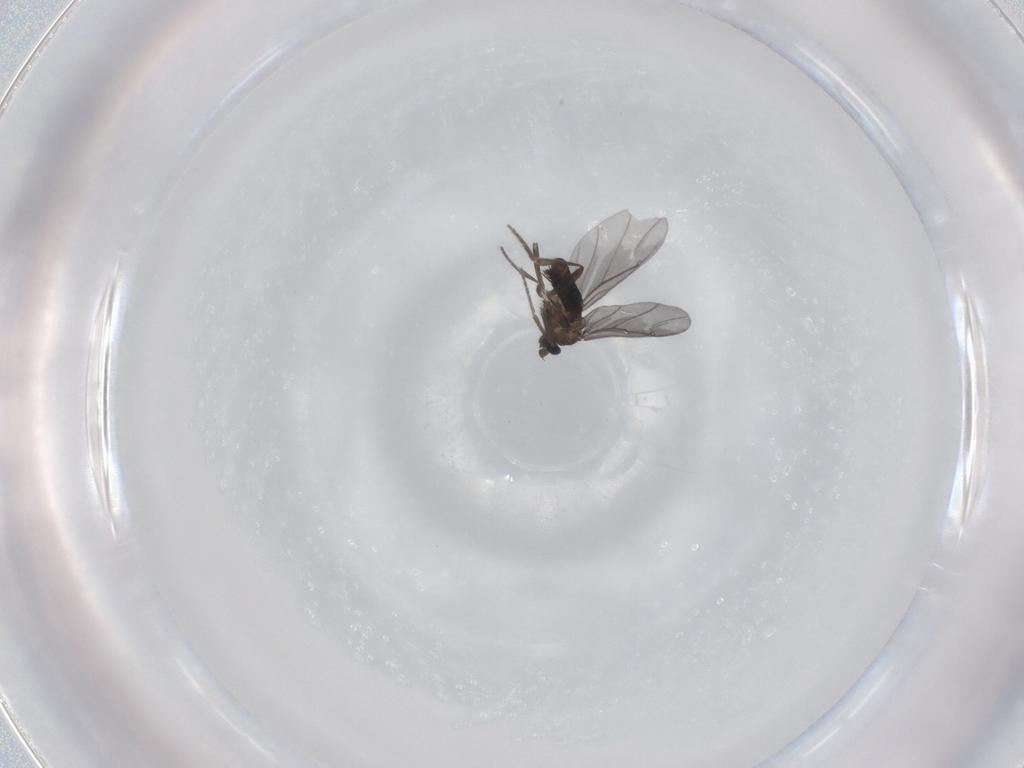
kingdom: Animalia
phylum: Arthropoda
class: Insecta
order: Diptera
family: Phoridae
